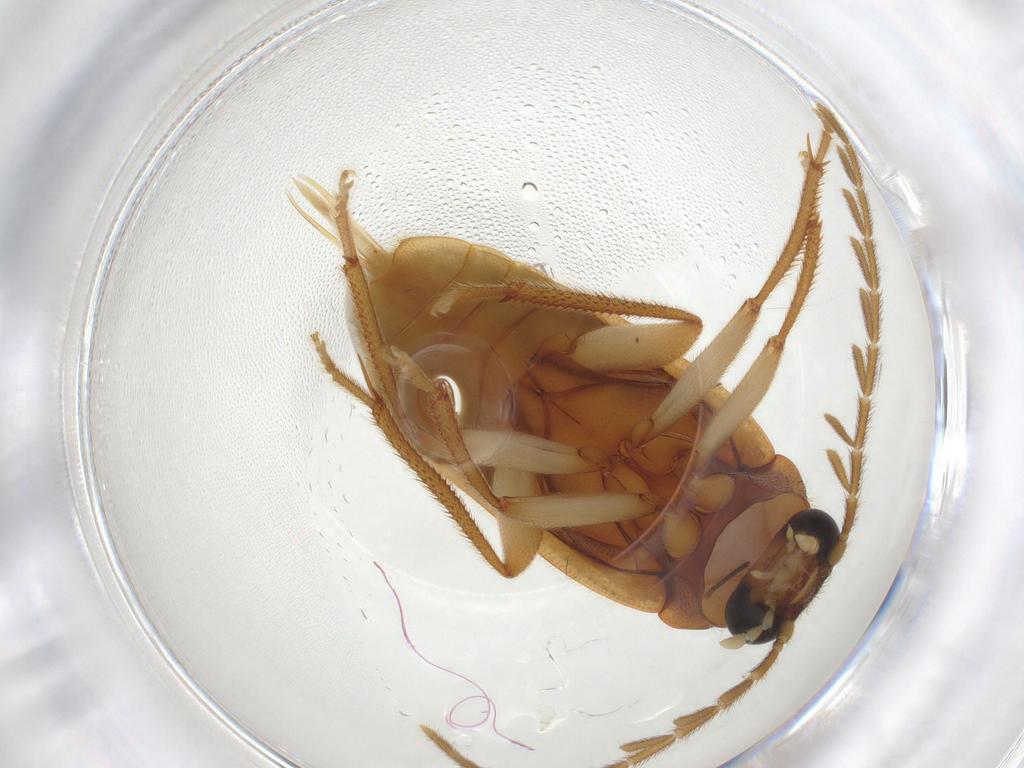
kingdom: Animalia
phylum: Arthropoda
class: Insecta
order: Coleoptera
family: Ptilodactylidae
